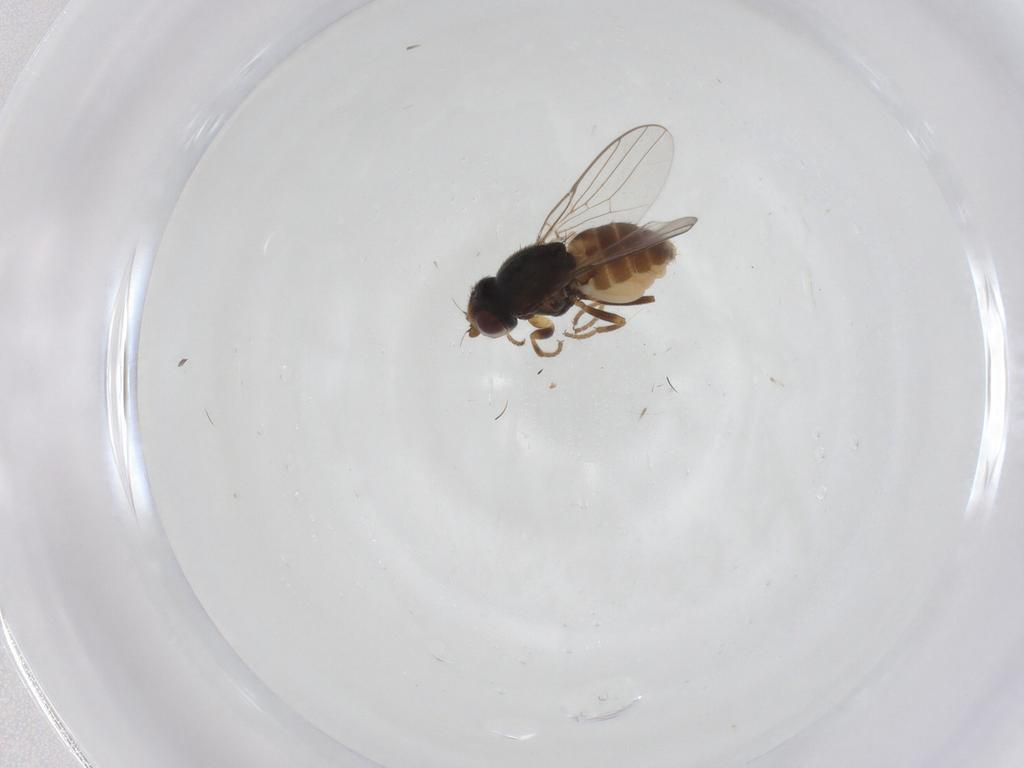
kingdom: Animalia
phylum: Arthropoda
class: Insecta
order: Diptera
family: Chloropidae
